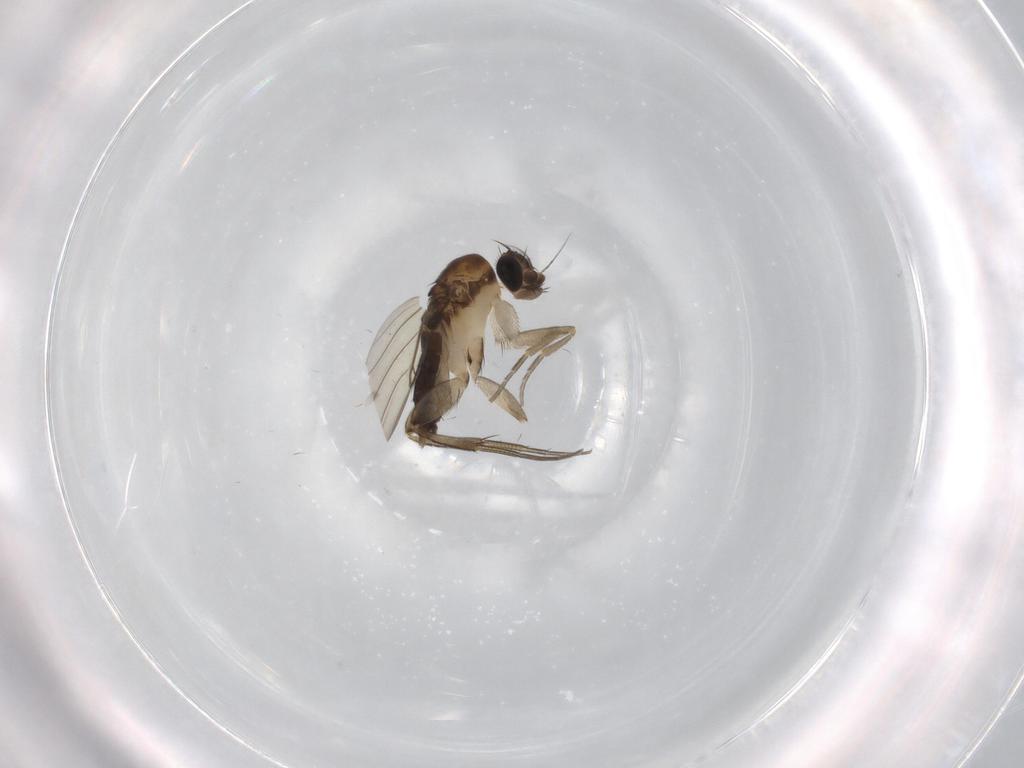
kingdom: Animalia
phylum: Arthropoda
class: Insecta
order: Diptera
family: Phoridae
